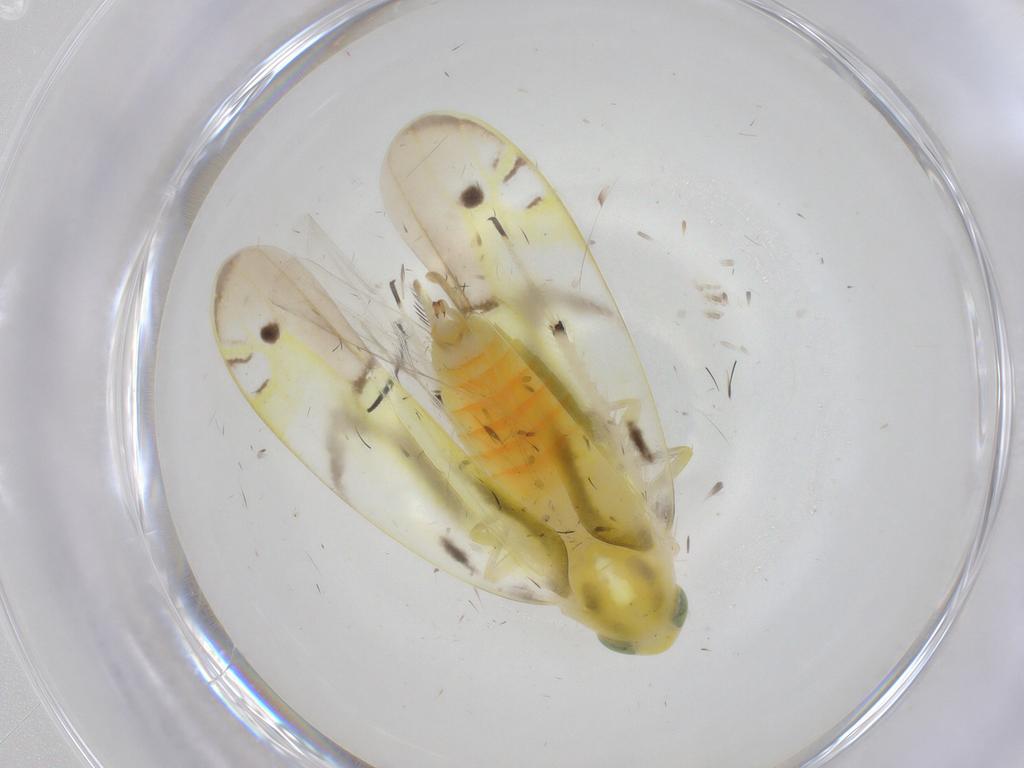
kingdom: Animalia
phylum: Arthropoda
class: Insecta
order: Hemiptera
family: Cicadellidae
